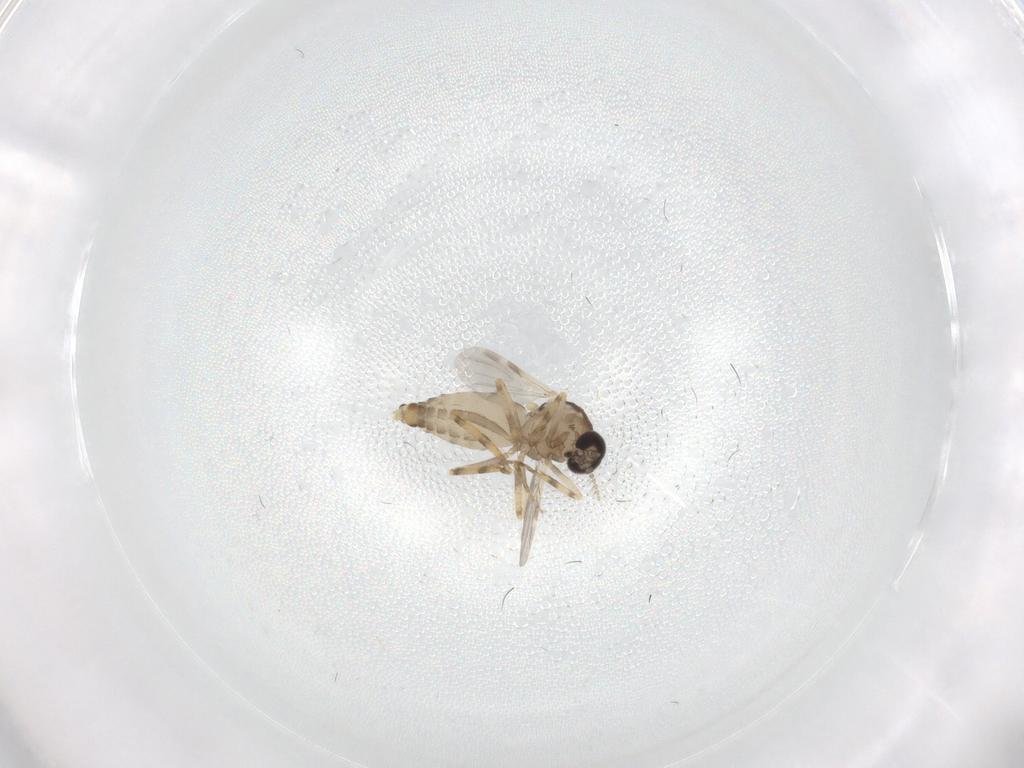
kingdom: Animalia
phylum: Arthropoda
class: Insecta
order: Diptera
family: Ceratopogonidae
